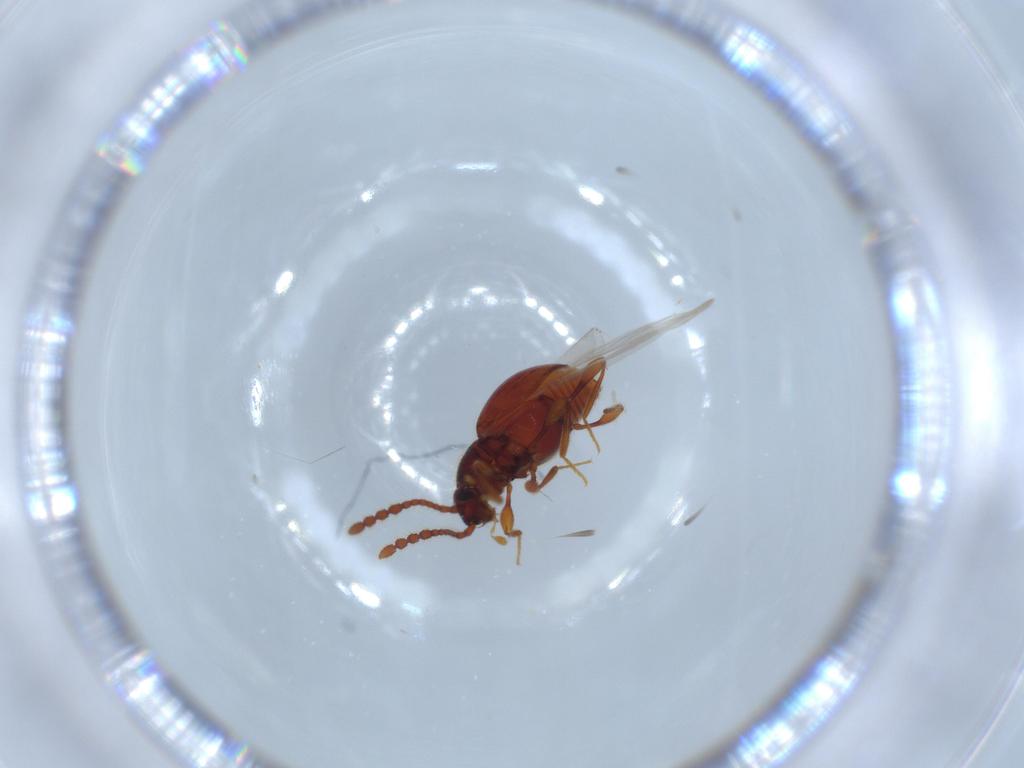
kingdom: Animalia
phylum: Arthropoda
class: Insecta
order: Coleoptera
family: Staphylinidae
